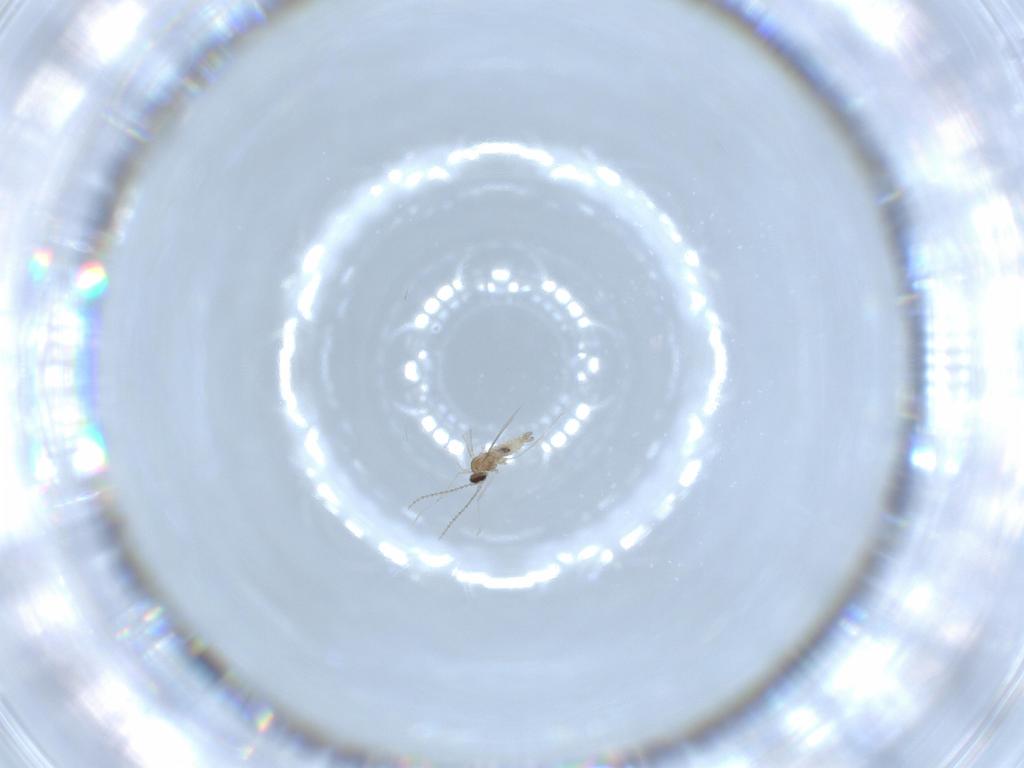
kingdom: Animalia
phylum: Arthropoda
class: Insecta
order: Diptera
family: Cecidomyiidae
